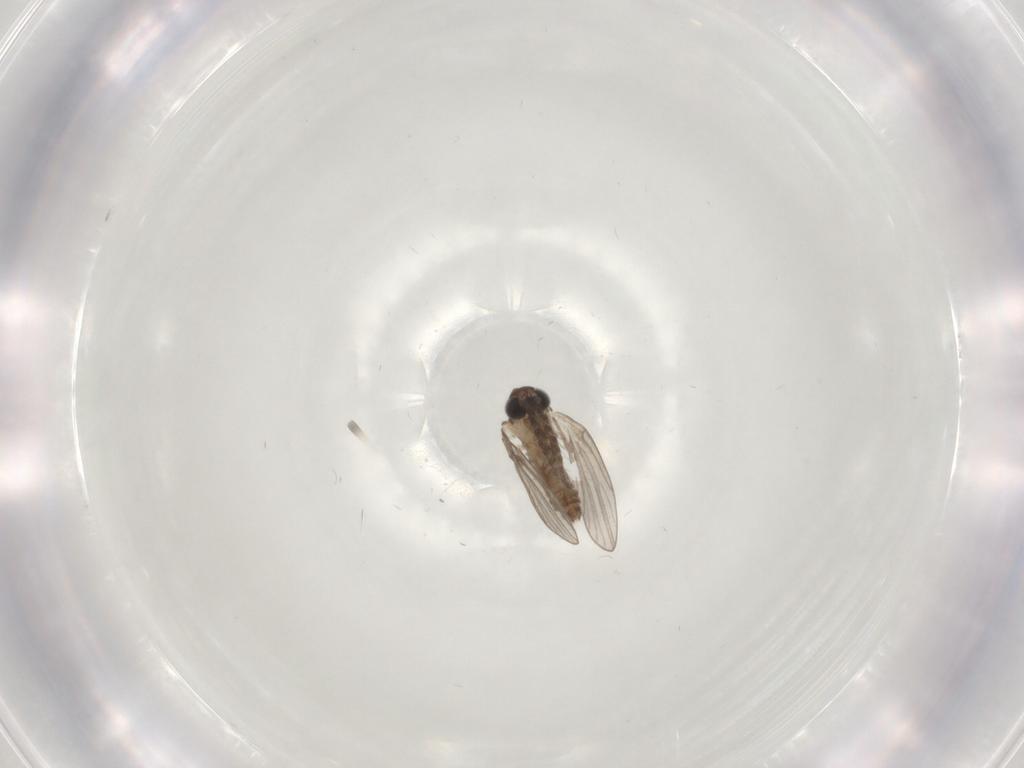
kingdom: Animalia
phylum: Arthropoda
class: Insecta
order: Diptera
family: Psychodidae
